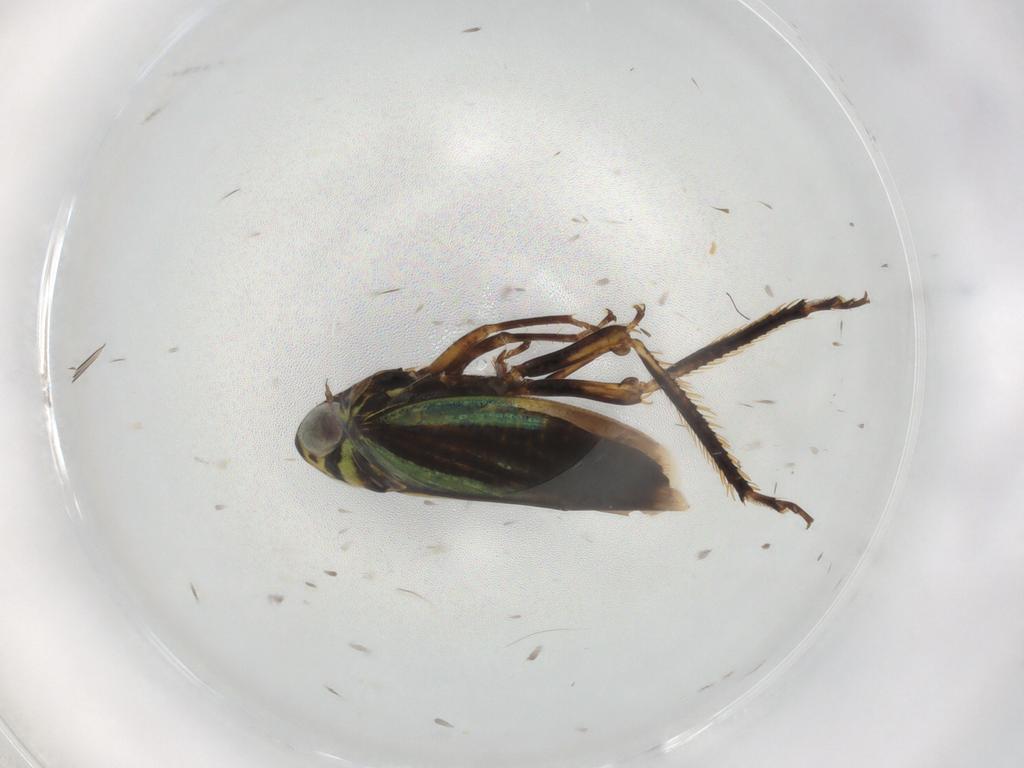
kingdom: Animalia
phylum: Arthropoda
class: Insecta
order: Hemiptera
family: Cicadellidae
